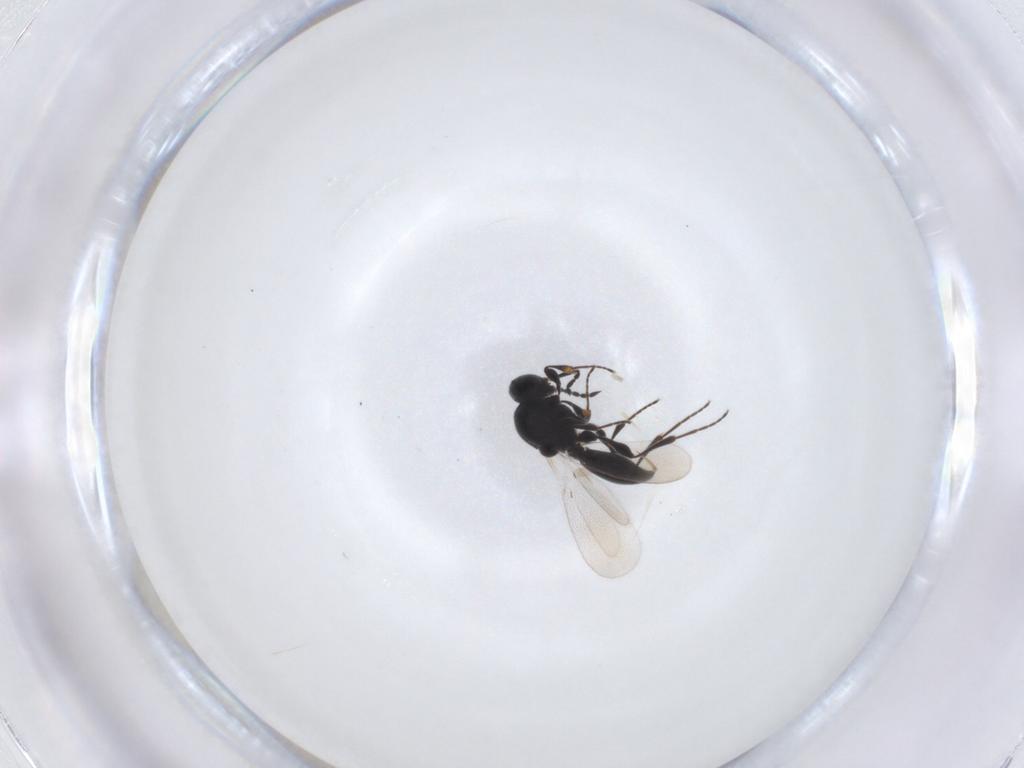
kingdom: Animalia
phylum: Arthropoda
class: Insecta
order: Diptera
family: Mythicomyiidae
